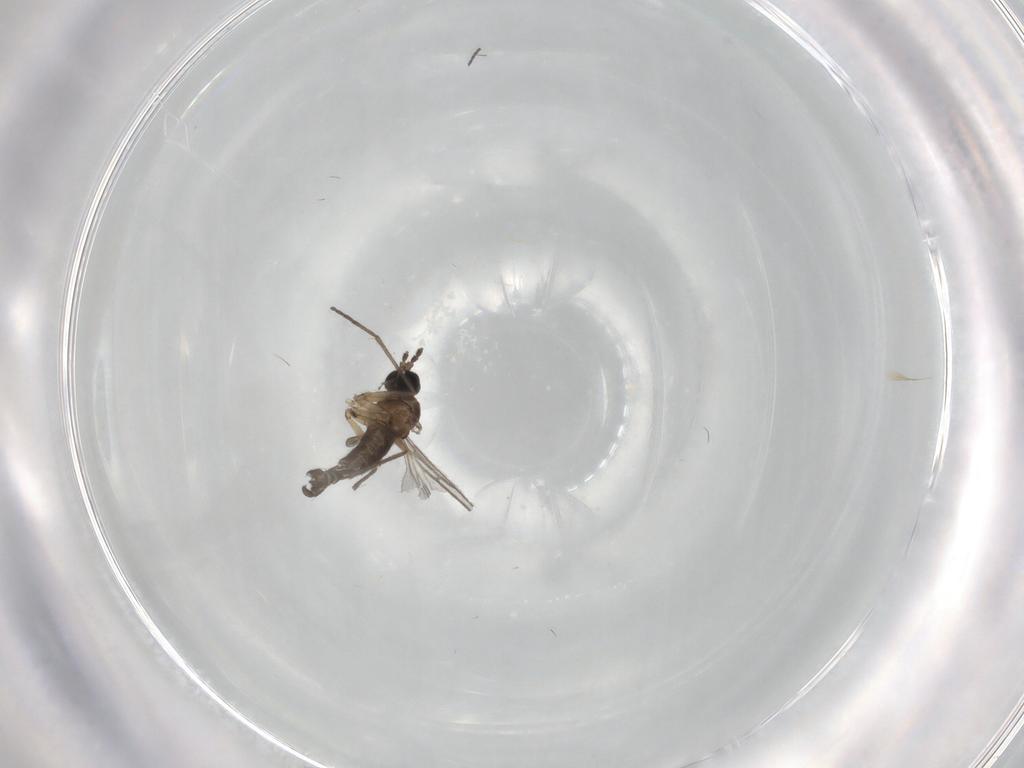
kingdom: Animalia
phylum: Arthropoda
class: Insecta
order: Diptera
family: Sciaridae
